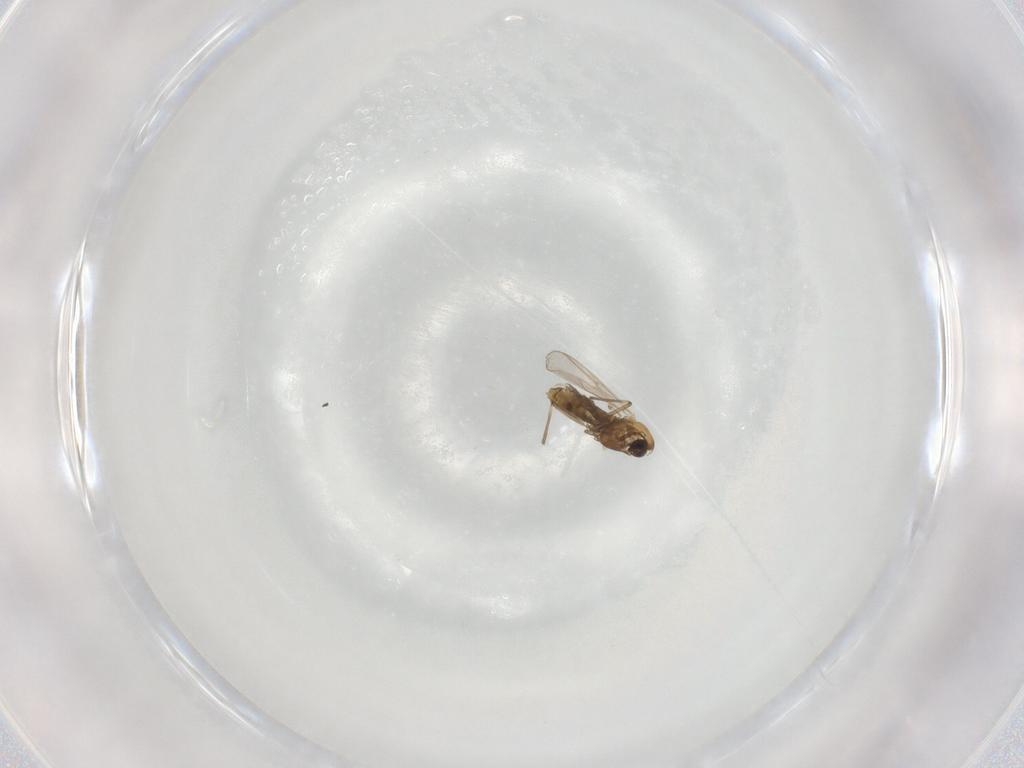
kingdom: Animalia
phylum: Arthropoda
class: Insecta
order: Diptera
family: Chironomidae
